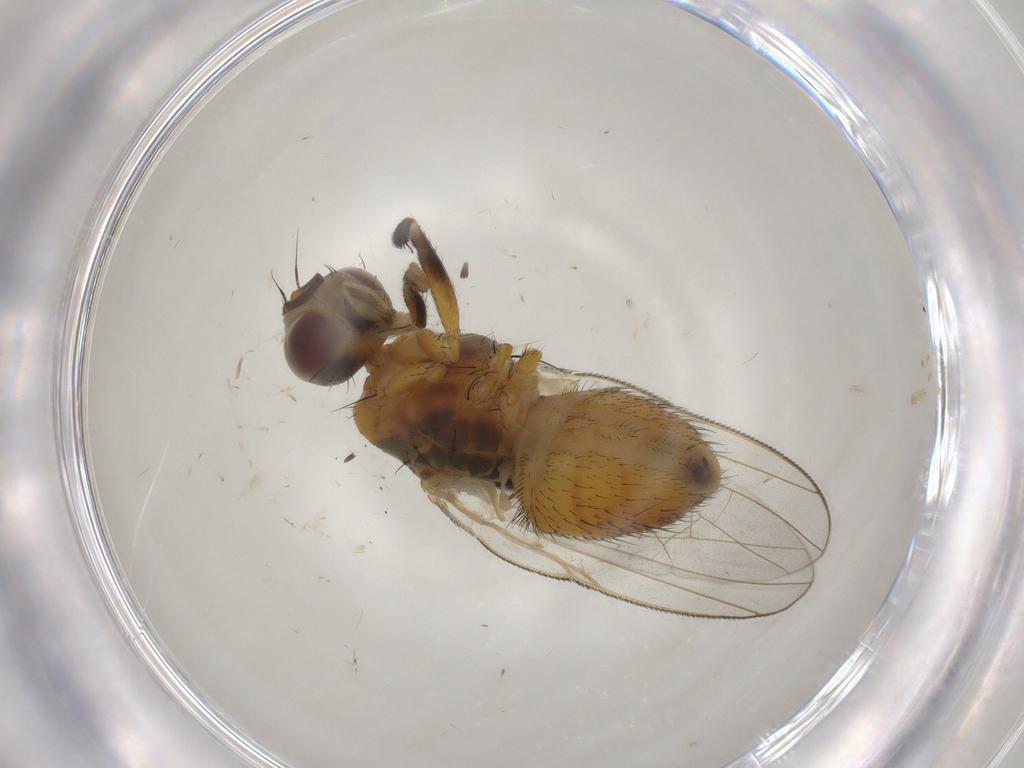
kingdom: Animalia
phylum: Arthropoda
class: Insecta
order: Diptera
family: Muscidae
